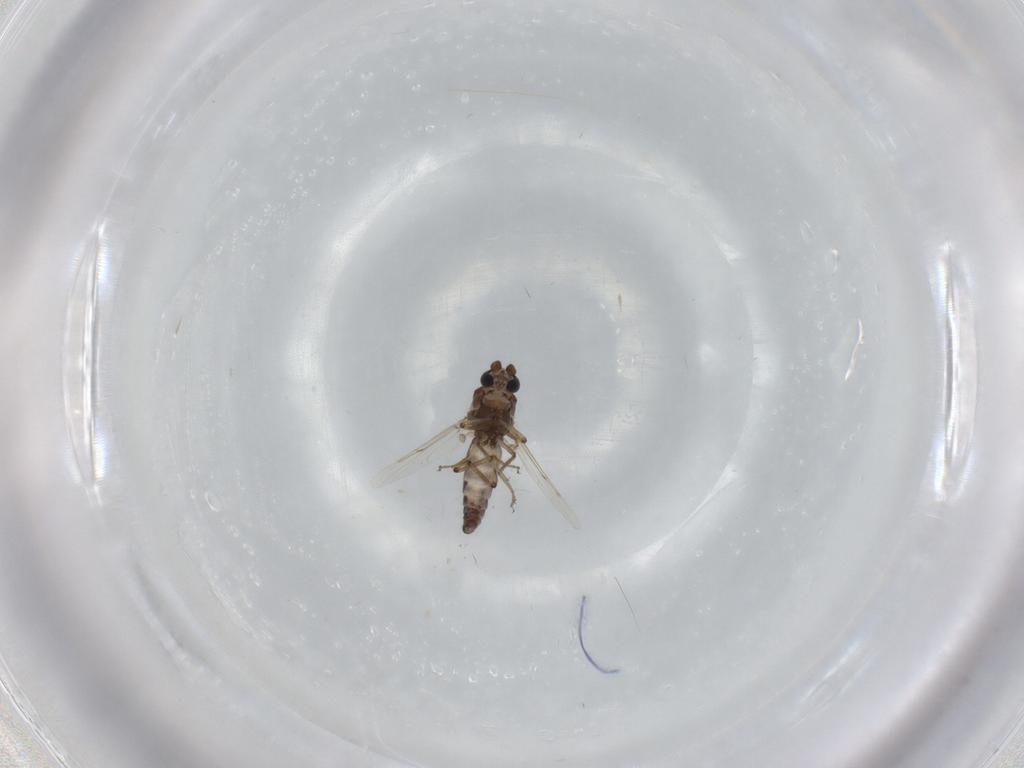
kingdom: Animalia
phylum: Arthropoda
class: Insecta
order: Diptera
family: Ceratopogonidae
